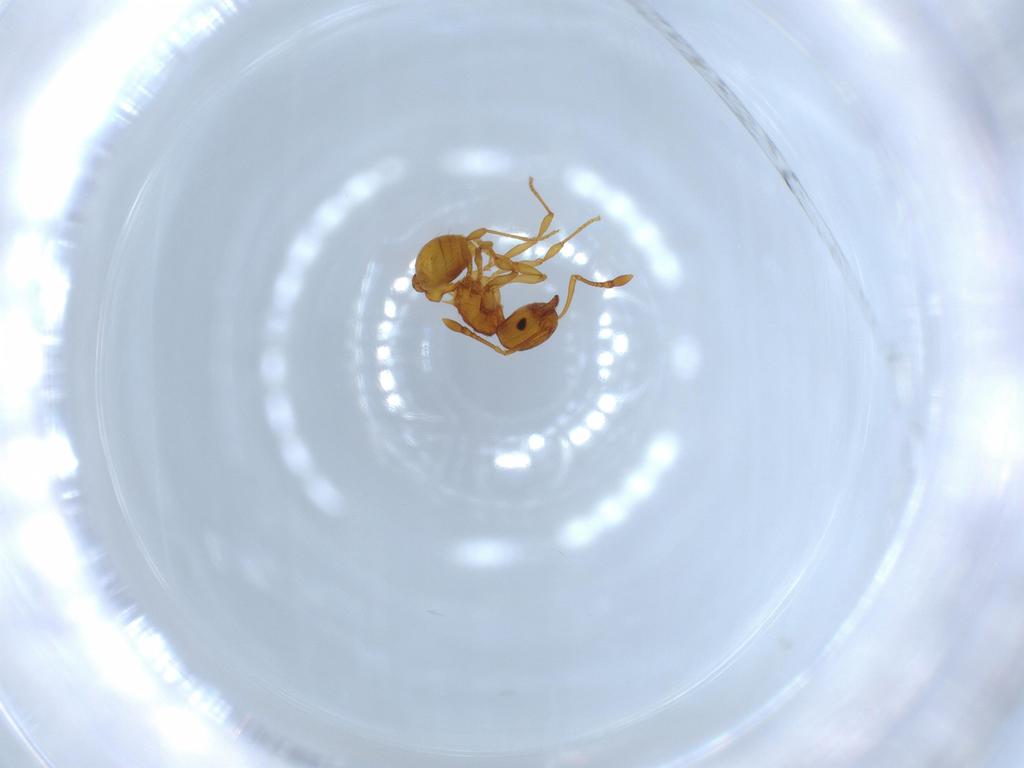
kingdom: Animalia
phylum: Arthropoda
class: Insecta
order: Hymenoptera
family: Formicidae
